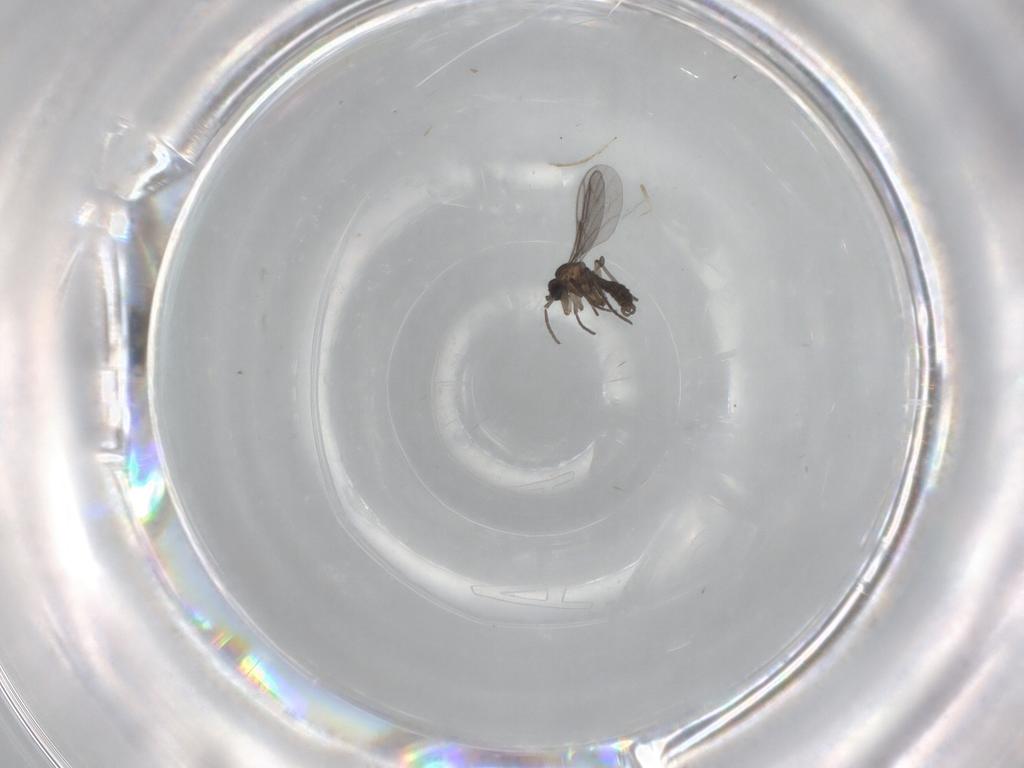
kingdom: Animalia
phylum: Arthropoda
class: Insecta
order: Diptera
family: Sciaridae
